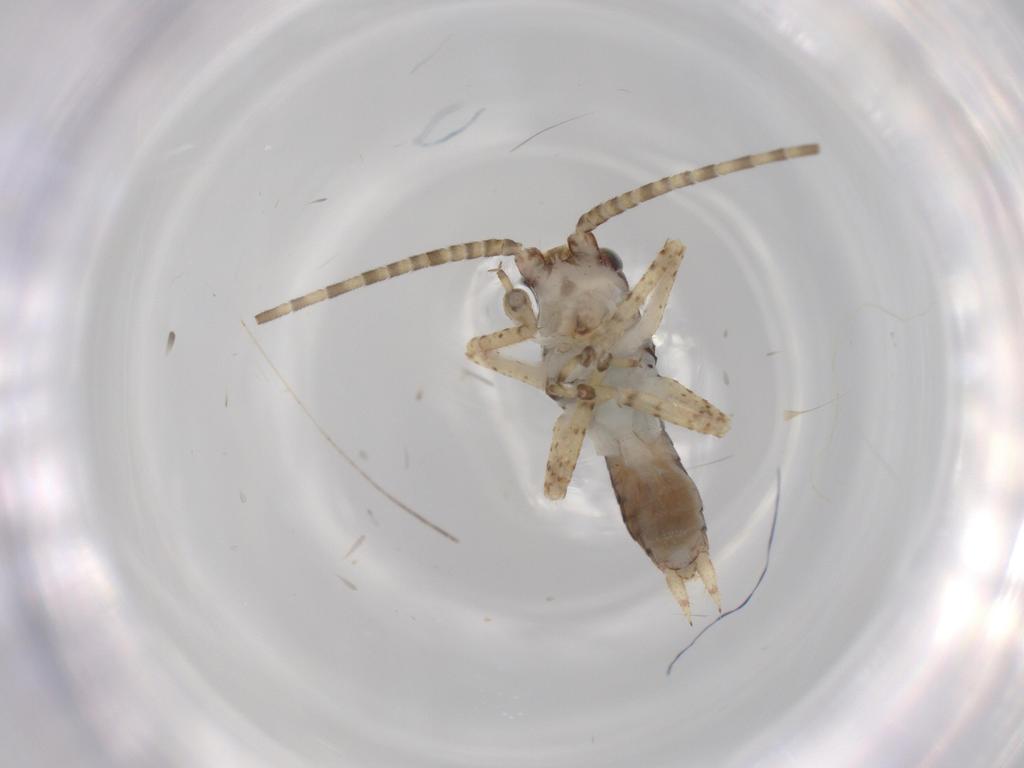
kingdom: Animalia
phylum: Arthropoda
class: Insecta
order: Orthoptera
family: Gryllidae
